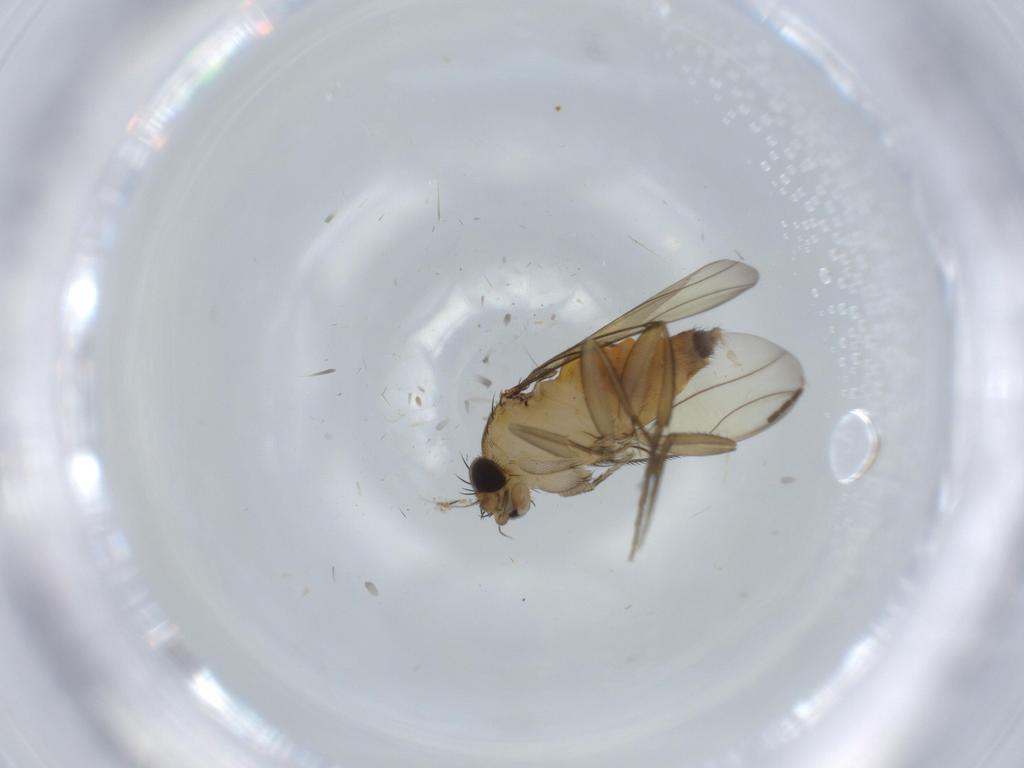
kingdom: Animalia
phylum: Arthropoda
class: Insecta
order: Diptera
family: Sciaridae
